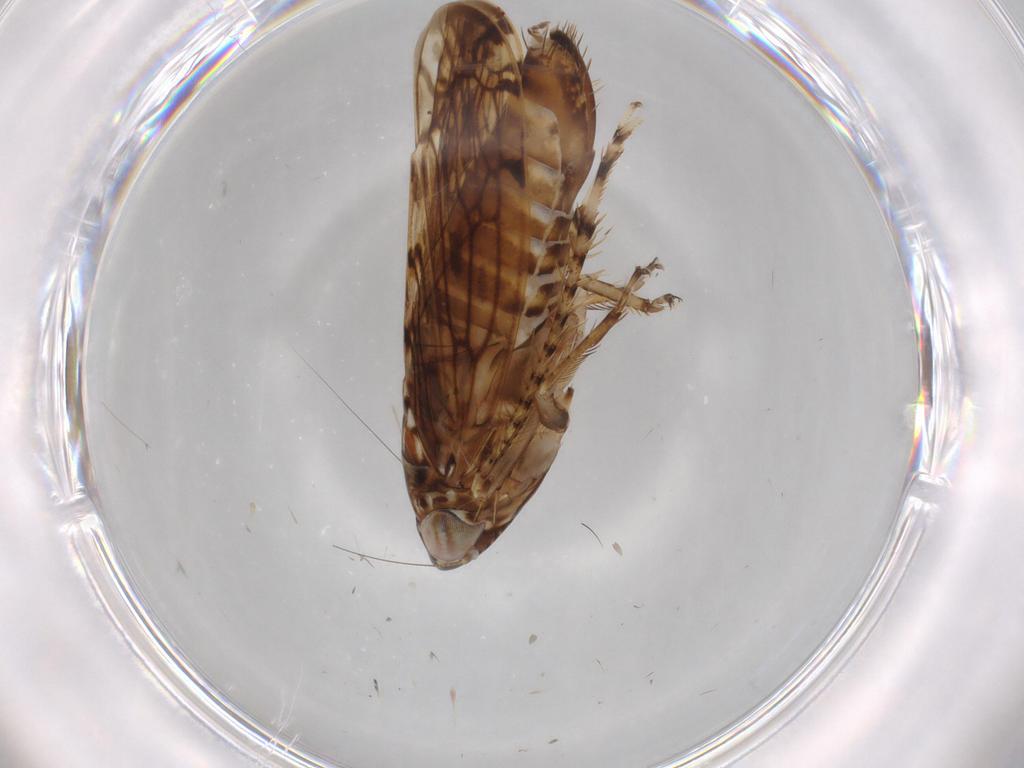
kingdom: Animalia
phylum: Arthropoda
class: Insecta
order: Hemiptera
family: Cicadellidae
